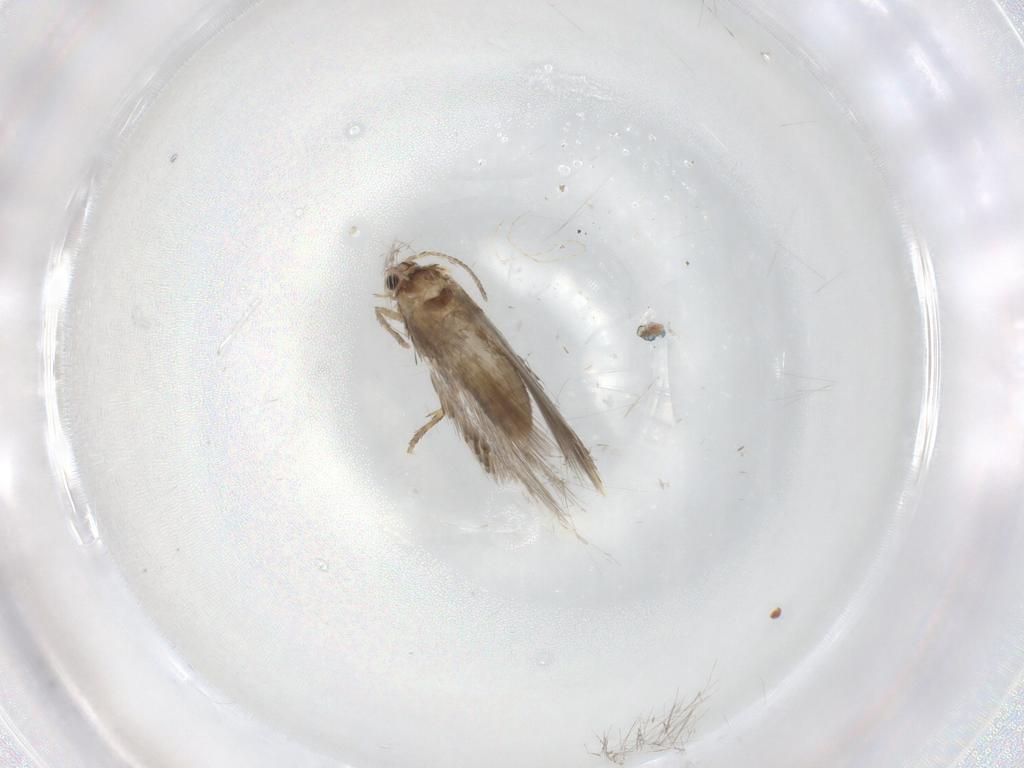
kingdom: Animalia
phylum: Arthropoda
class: Insecta
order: Lepidoptera
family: Nepticulidae
